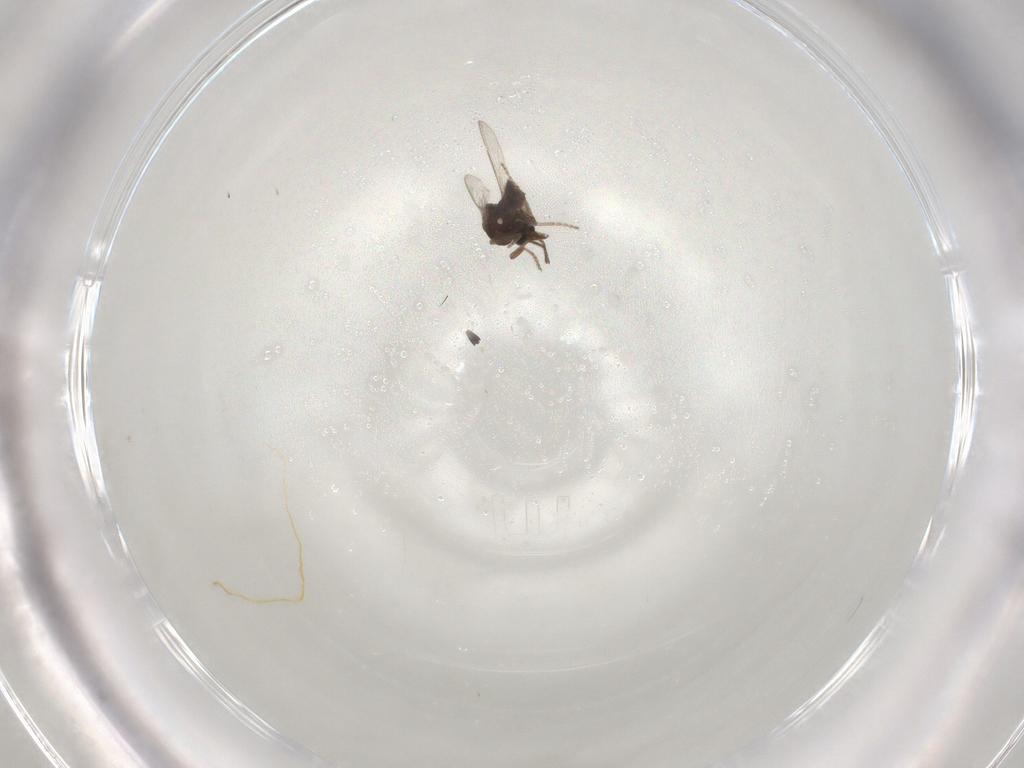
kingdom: Animalia
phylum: Arthropoda
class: Insecta
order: Diptera
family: Ceratopogonidae
